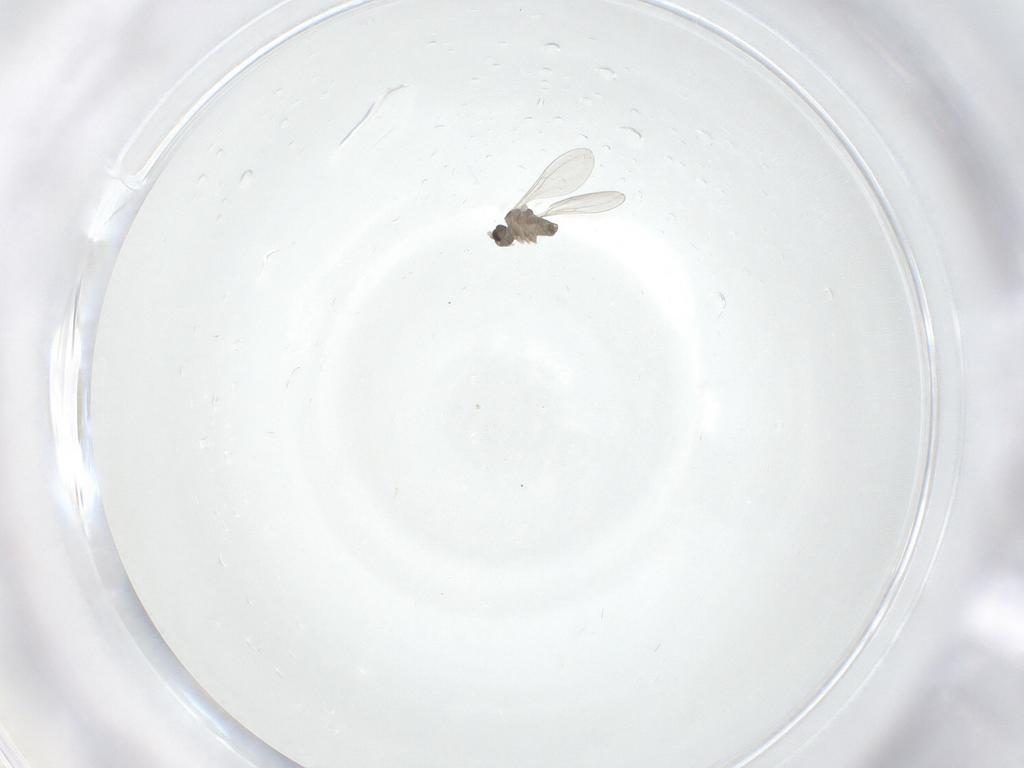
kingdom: Animalia
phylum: Arthropoda
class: Insecta
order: Diptera
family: Cecidomyiidae
